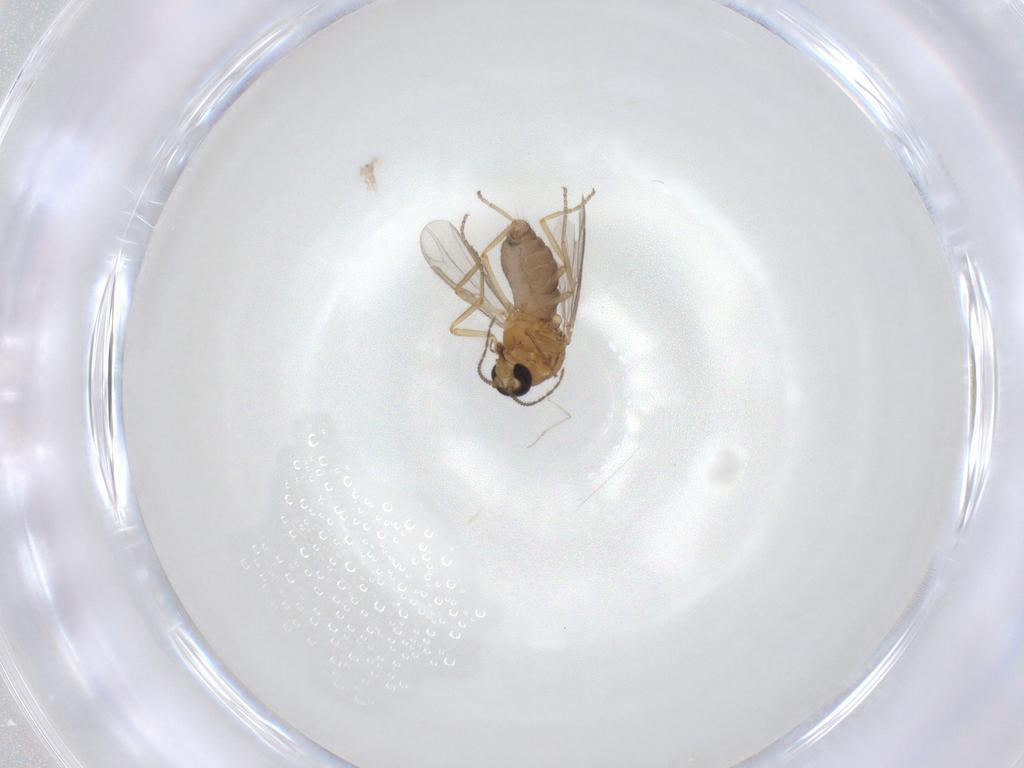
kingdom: Animalia
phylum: Arthropoda
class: Insecta
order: Diptera
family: Ceratopogonidae
